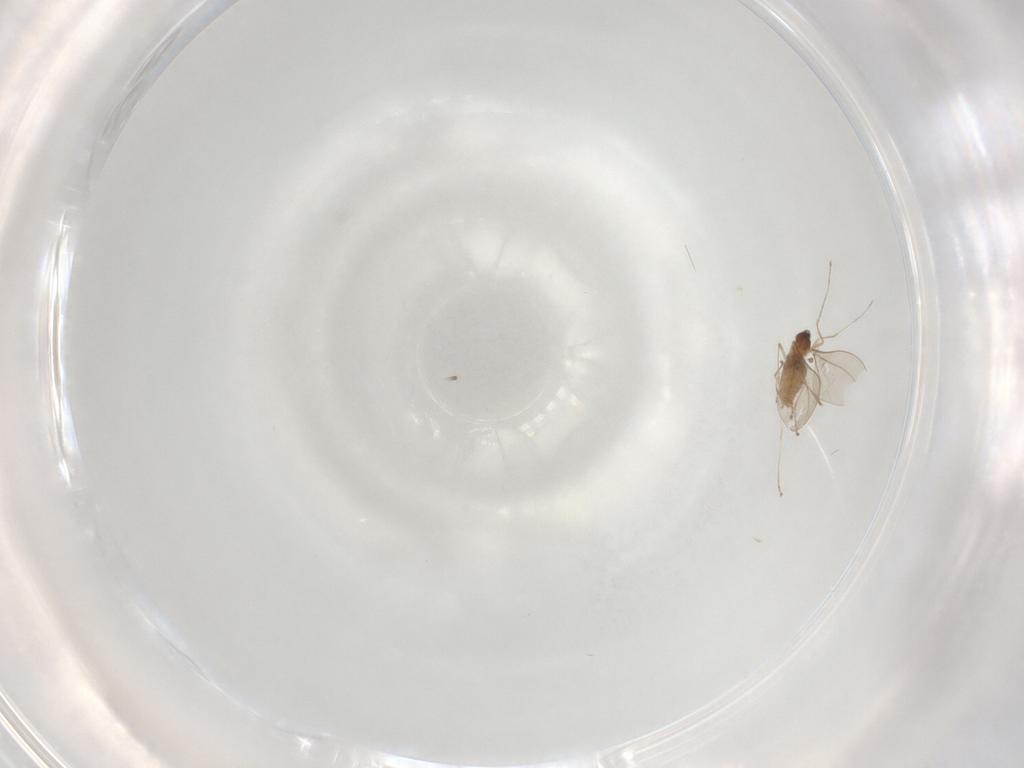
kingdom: Animalia
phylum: Arthropoda
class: Insecta
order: Diptera
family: Cecidomyiidae
